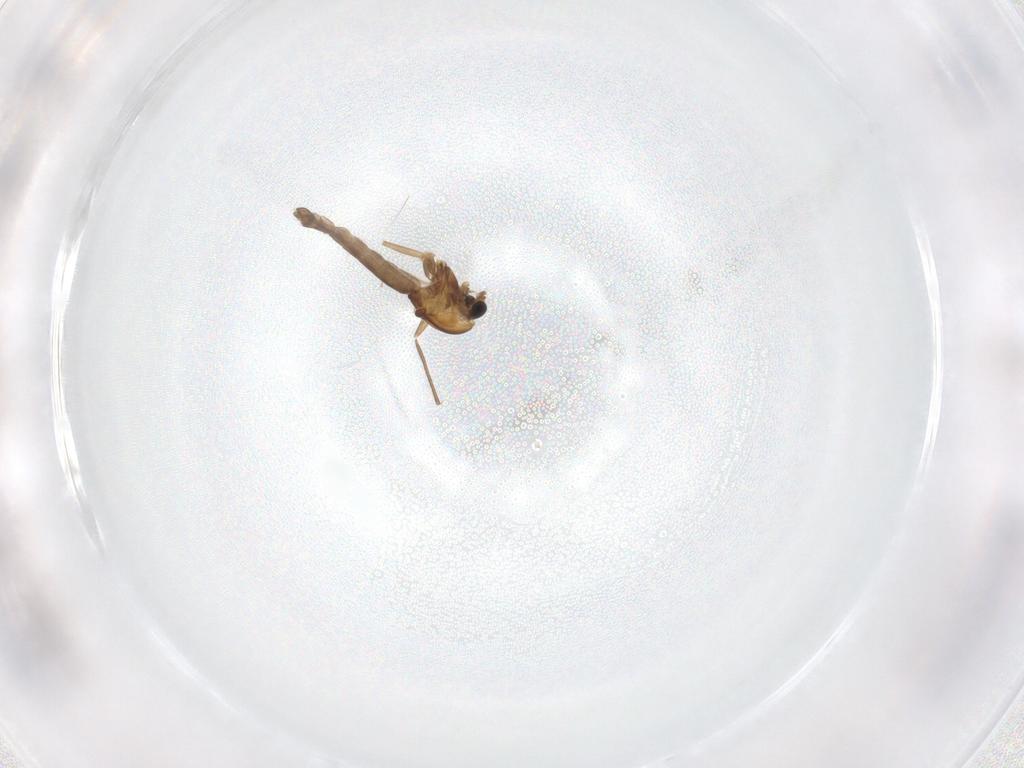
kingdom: Animalia
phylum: Arthropoda
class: Insecta
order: Diptera
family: Chironomidae
